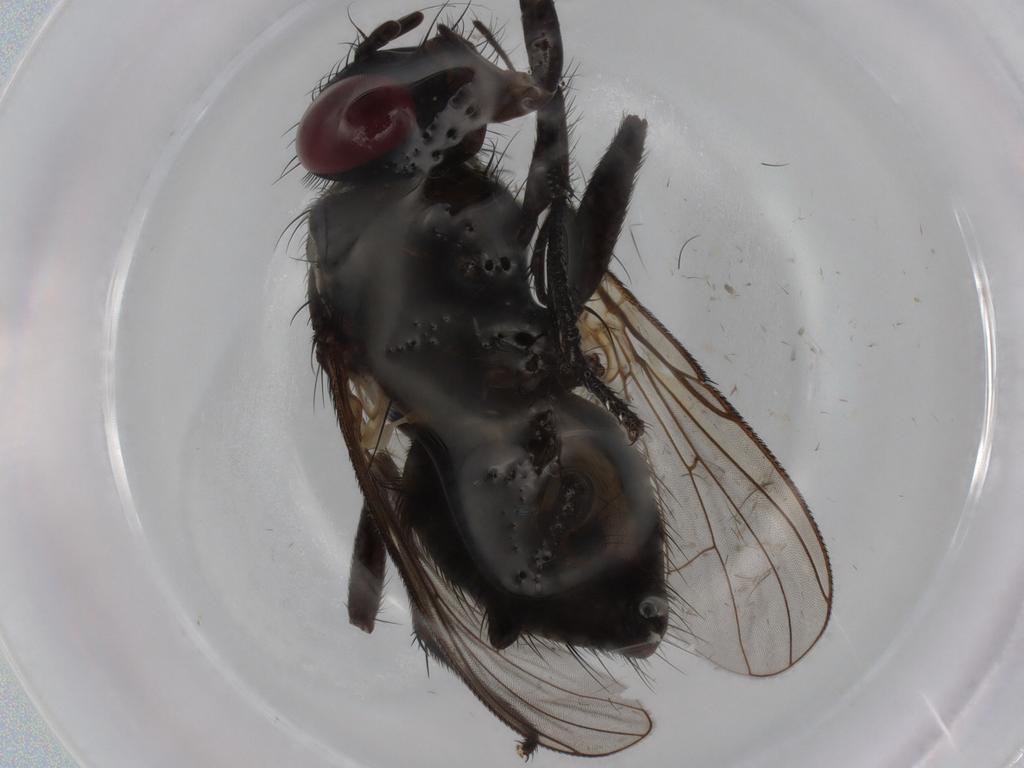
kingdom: Animalia
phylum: Arthropoda
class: Insecta
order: Diptera
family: Muscidae
